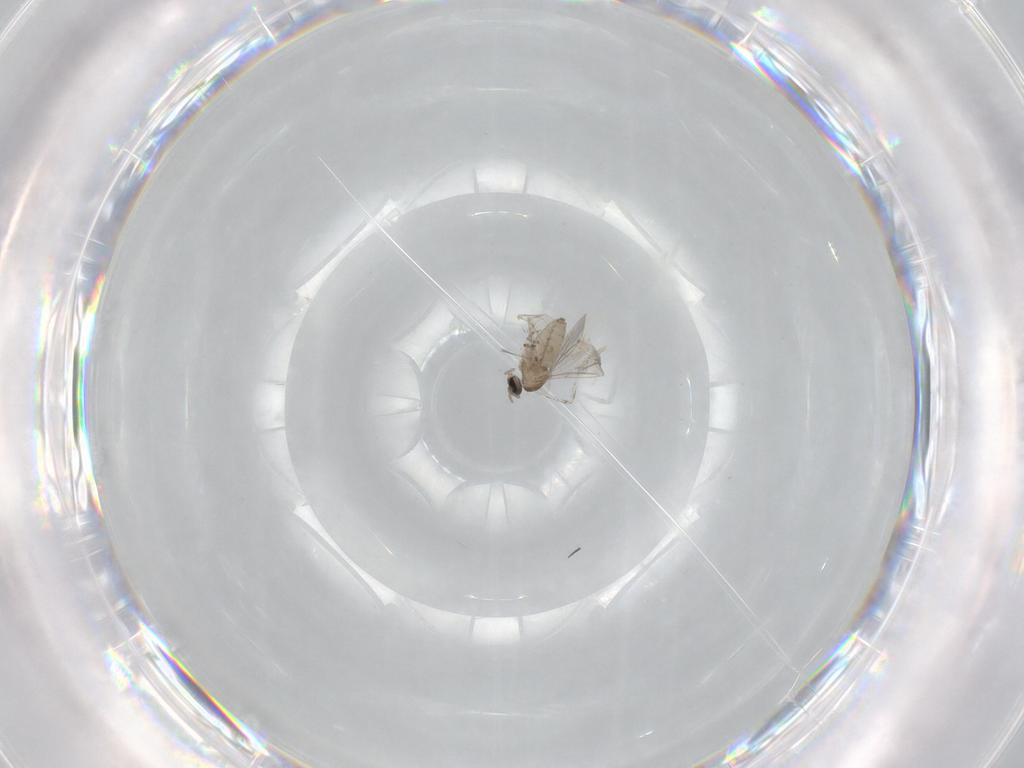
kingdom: Animalia
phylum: Arthropoda
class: Insecta
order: Diptera
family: Cecidomyiidae
